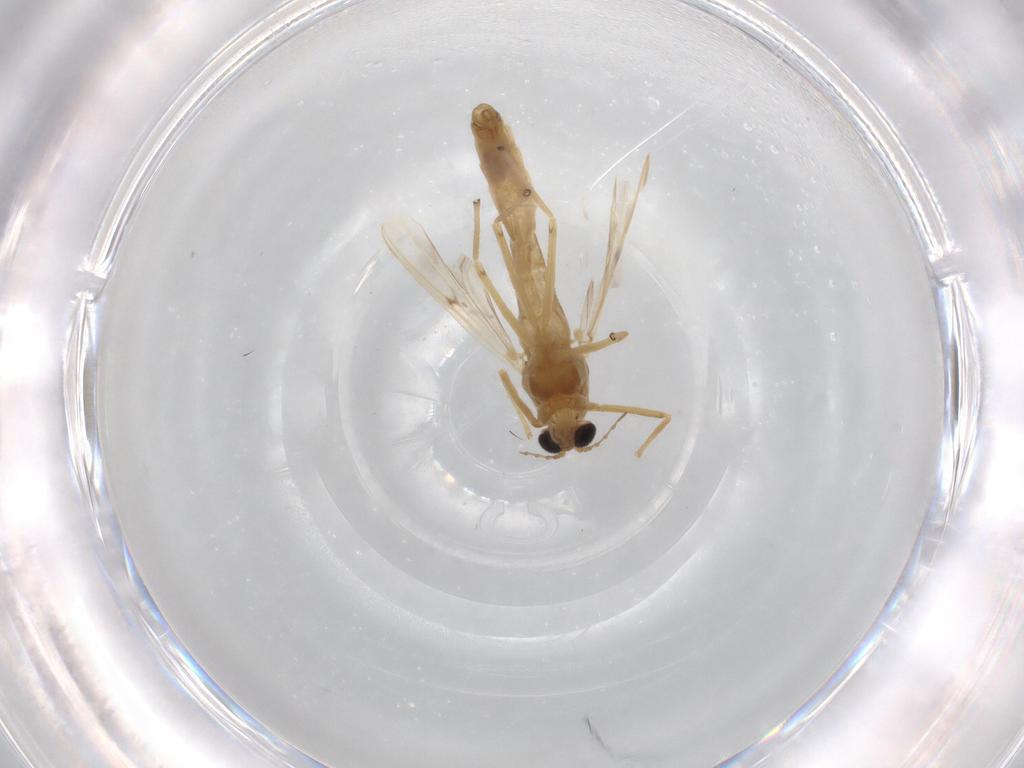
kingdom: Animalia
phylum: Arthropoda
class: Insecta
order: Diptera
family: Chironomidae
